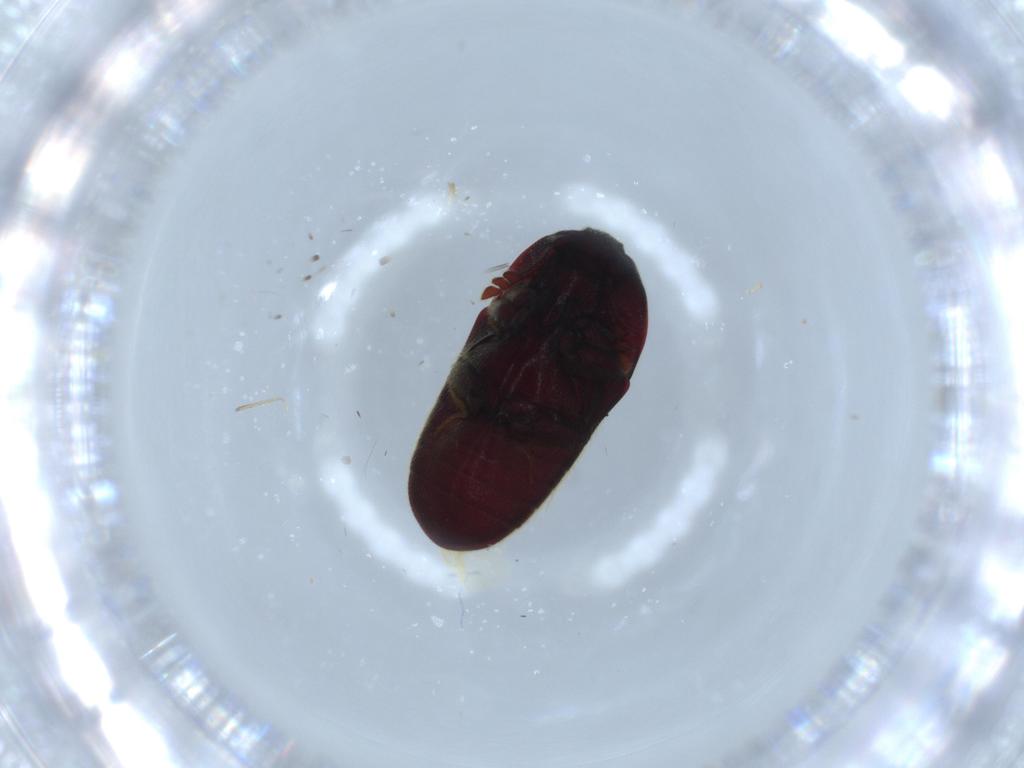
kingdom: Animalia
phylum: Arthropoda
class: Insecta
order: Coleoptera
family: Throscidae
